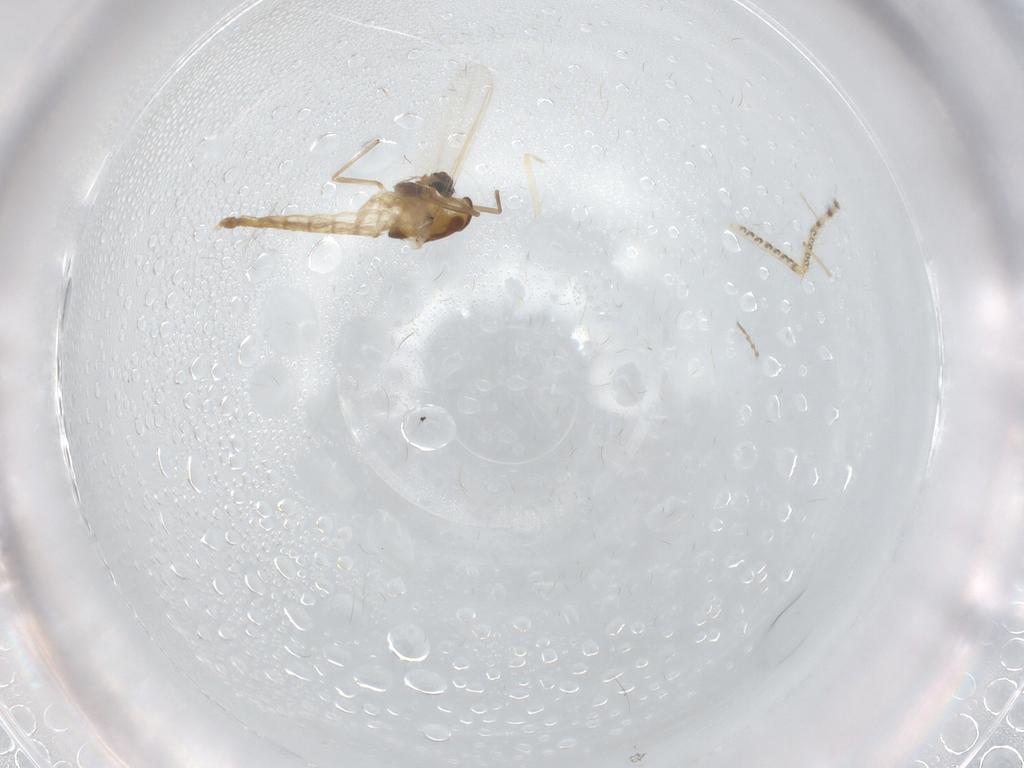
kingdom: Animalia
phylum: Arthropoda
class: Insecta
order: Diptera
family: Chironomidae
